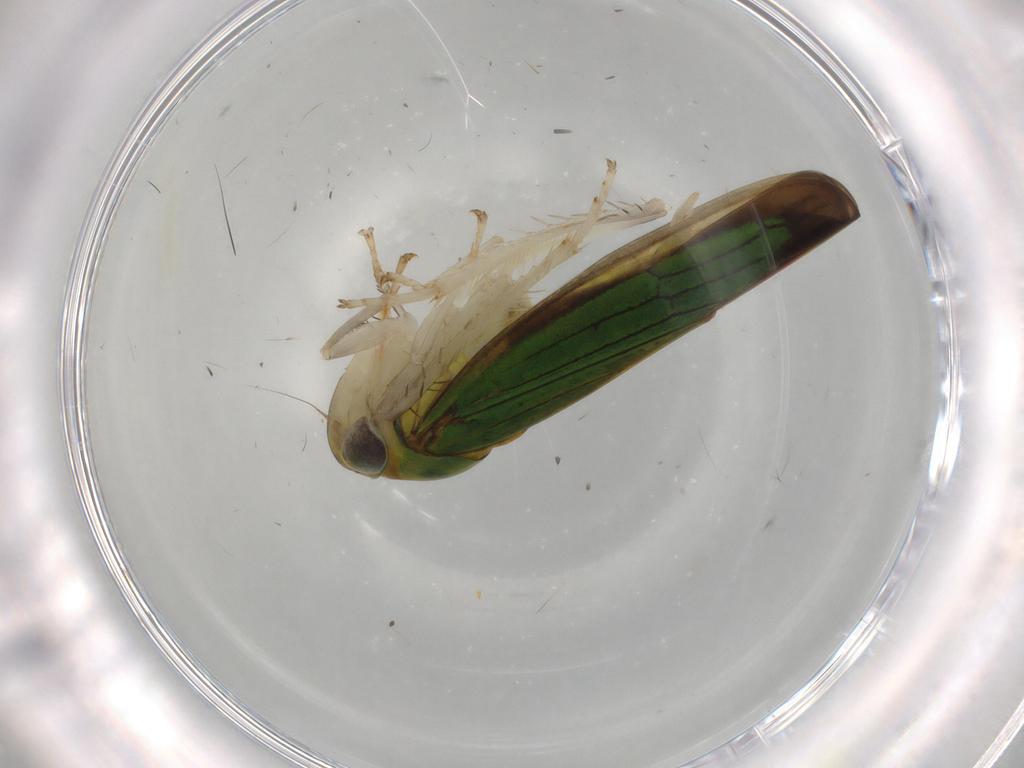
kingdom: Animalia
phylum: Arthropoda
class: Insecta
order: Hemiptera
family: Cicadellidae
